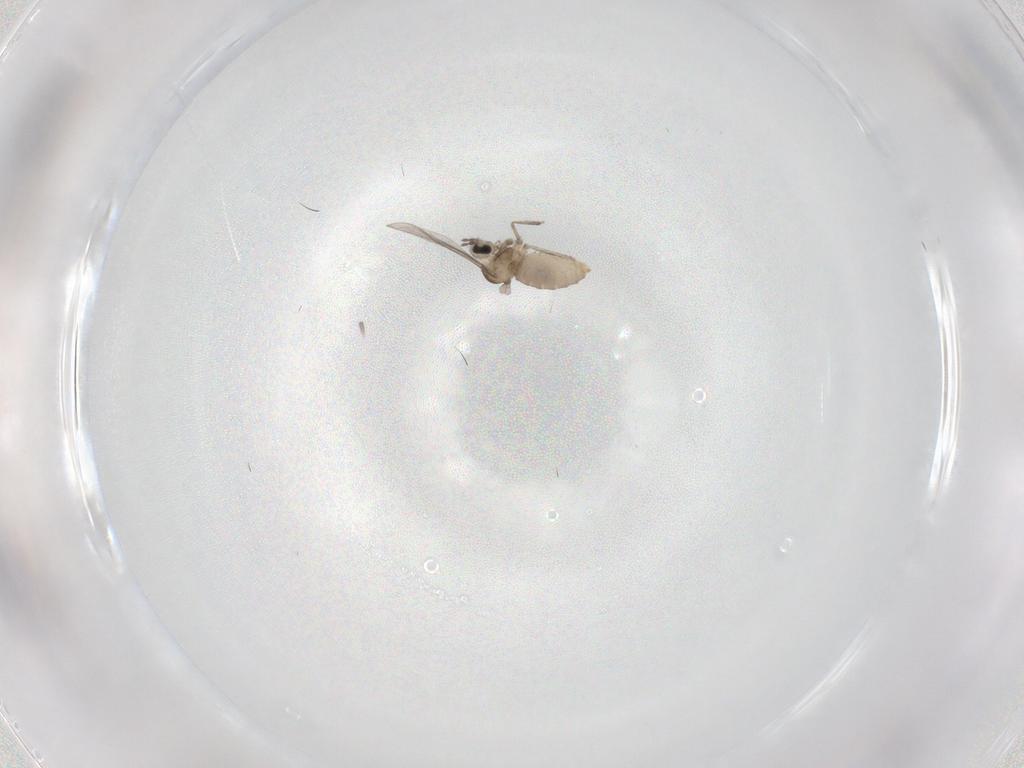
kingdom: Animalia
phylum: Arthropoda
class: Insecta
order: Diptera
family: Cecidomyiidae
